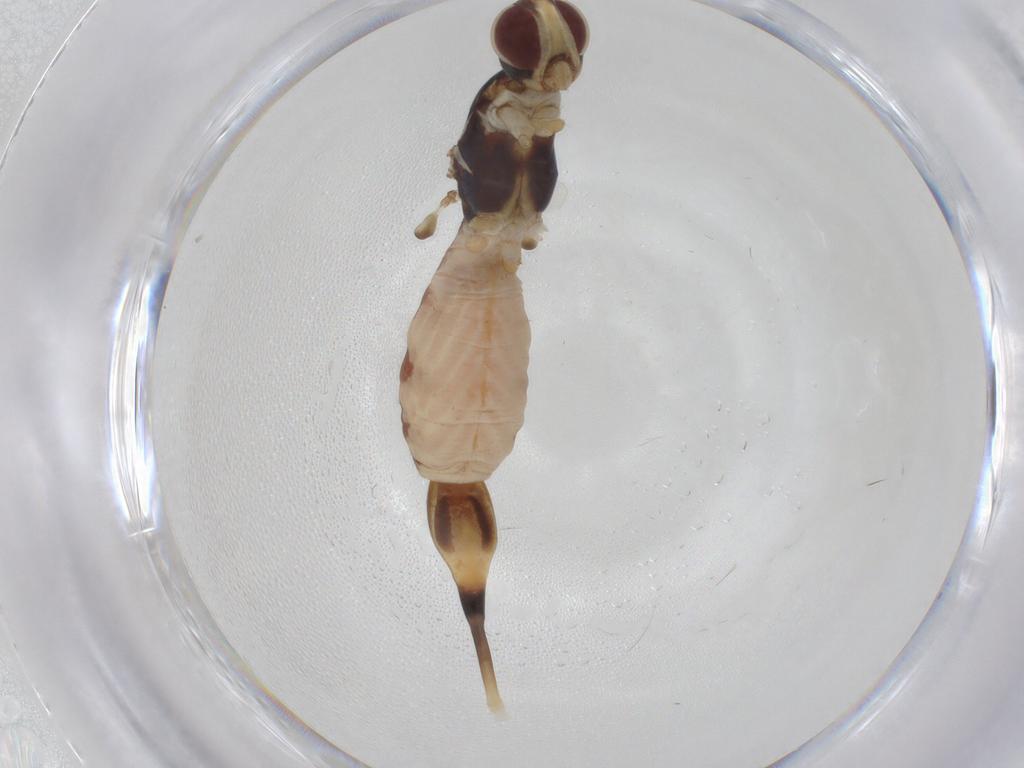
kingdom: Animalia
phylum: Arthropoda
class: Insecta
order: Diptera
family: Micropezidae
